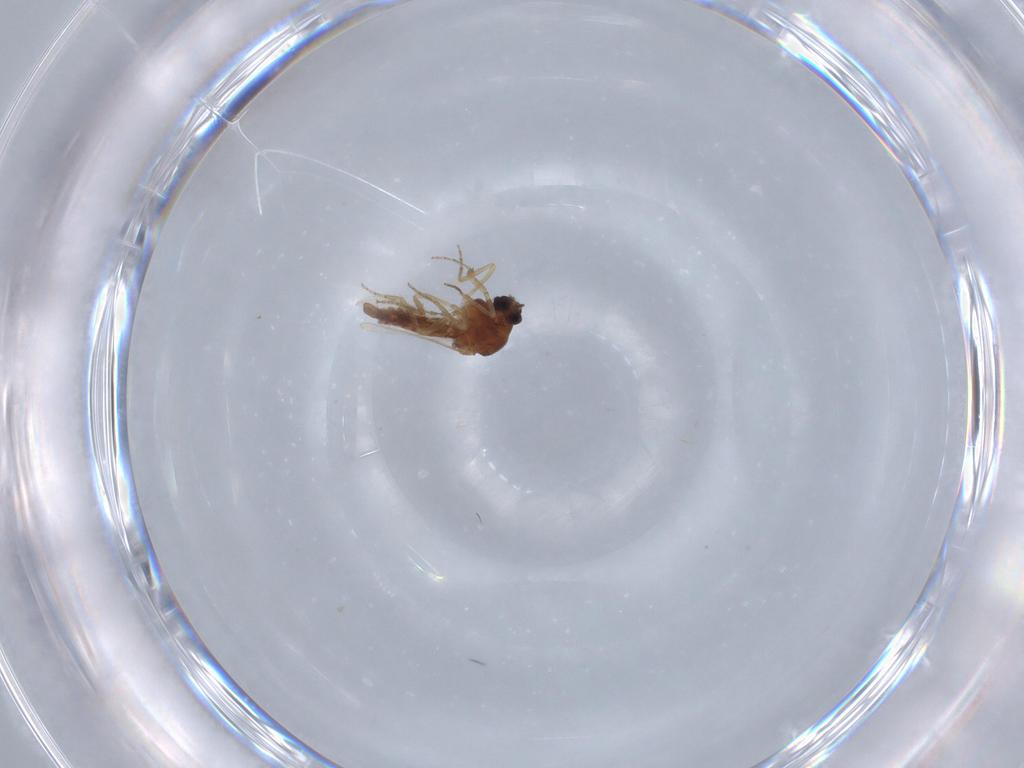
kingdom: Animalia
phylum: Arthropoda
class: Insecta
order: Diptera
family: Ceratopogonidae
